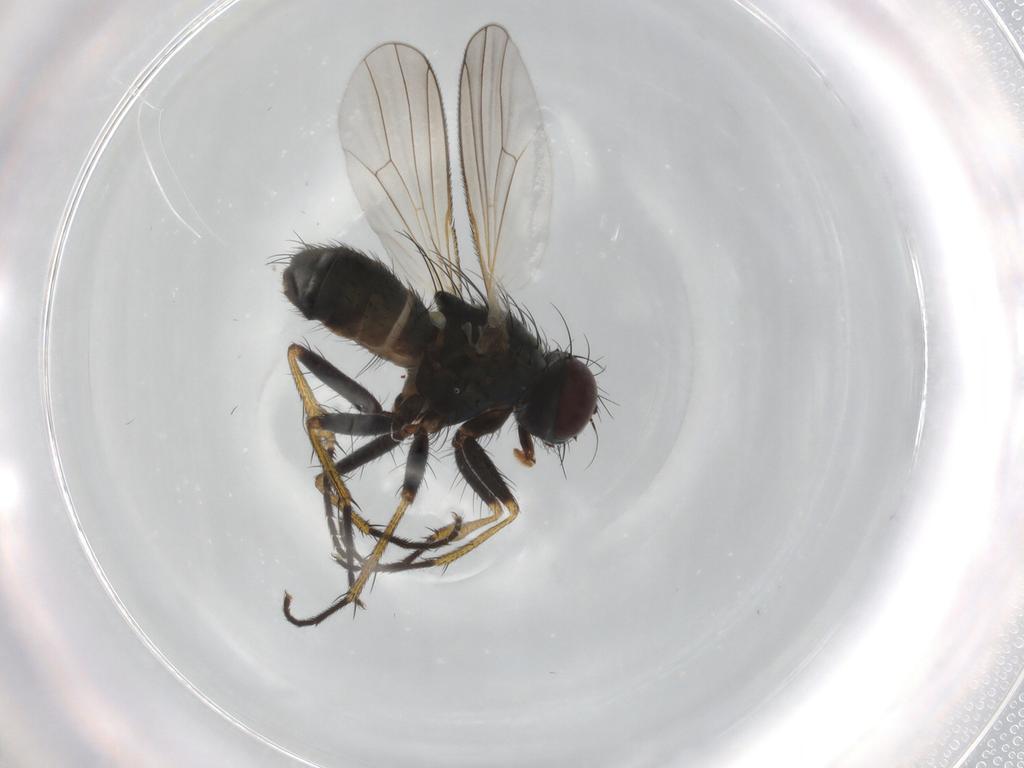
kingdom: Animalia
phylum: Arthropoda
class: Insecta
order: Diptera
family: Muscidae
